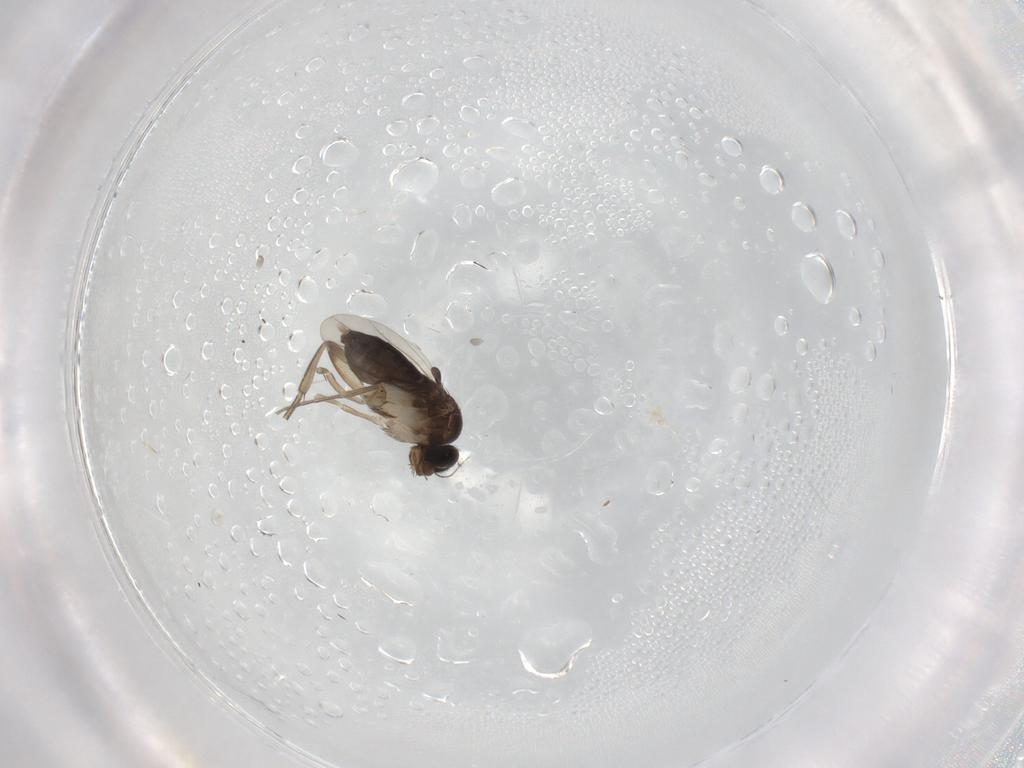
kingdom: Animalia
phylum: Arthropoda
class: Insecta
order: Diptera
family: Phoridae
